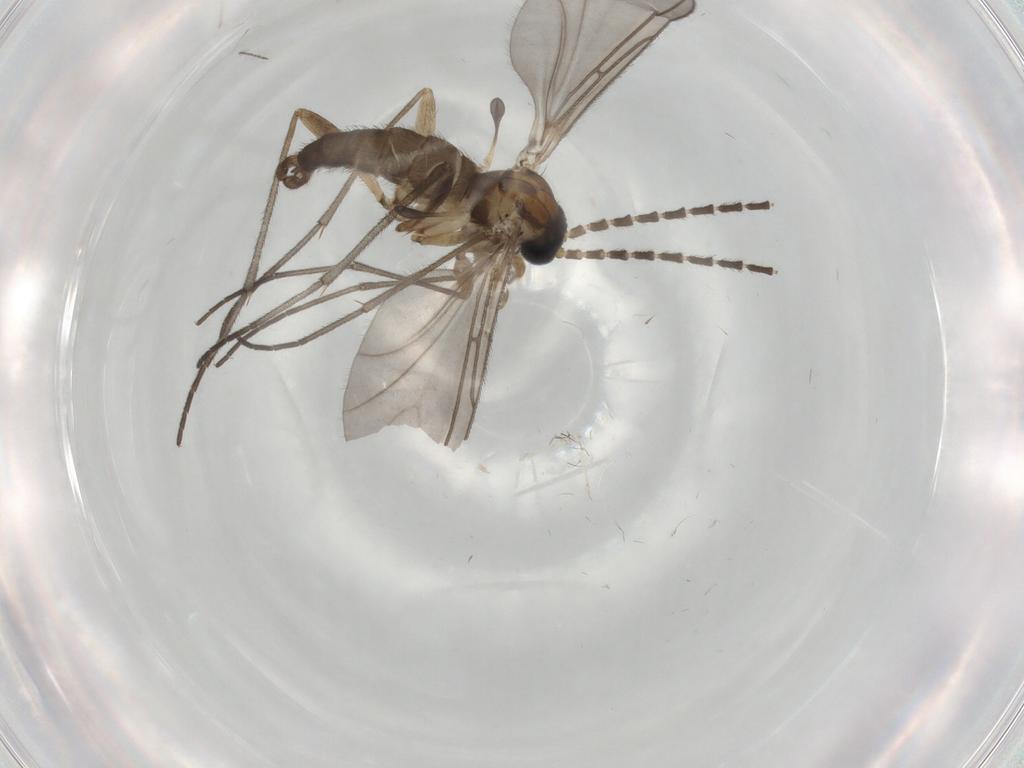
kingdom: Animalia
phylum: Arthropoda
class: Insecta
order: Diptera
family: Cecidomyiidae
